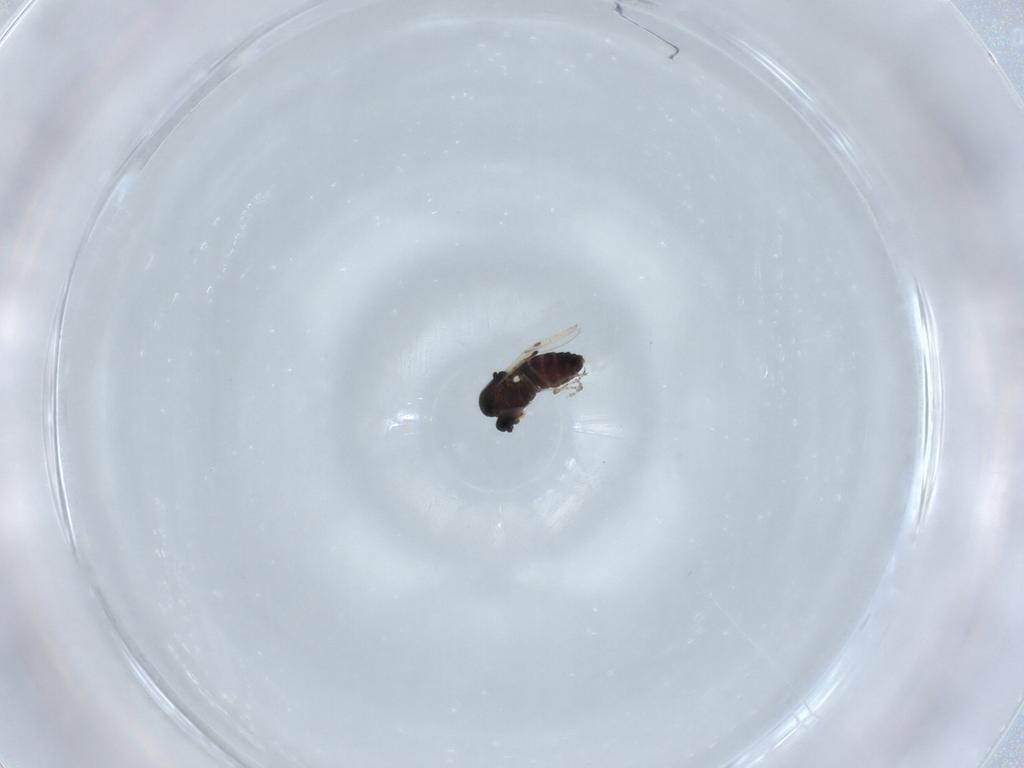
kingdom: Animalia
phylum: Arthropoda
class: Insecta
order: Diptera
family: Ceratopogonidae
